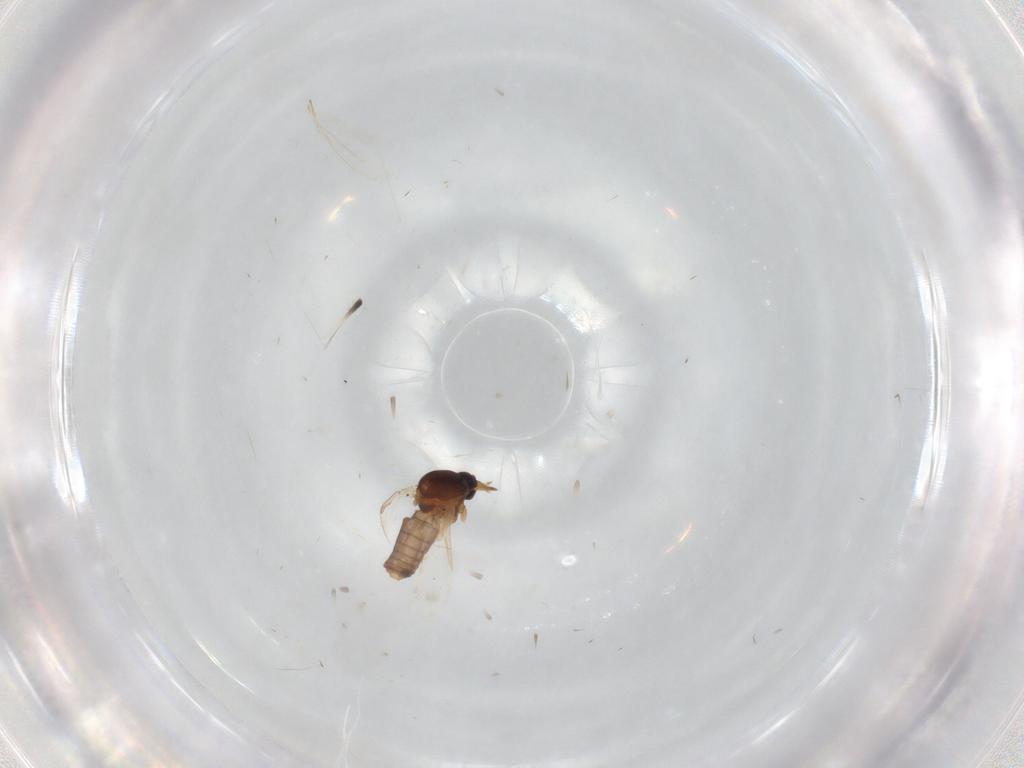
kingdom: Animalia
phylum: Arthropoda
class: Insecta
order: Diptera
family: Ceratopogonidae
